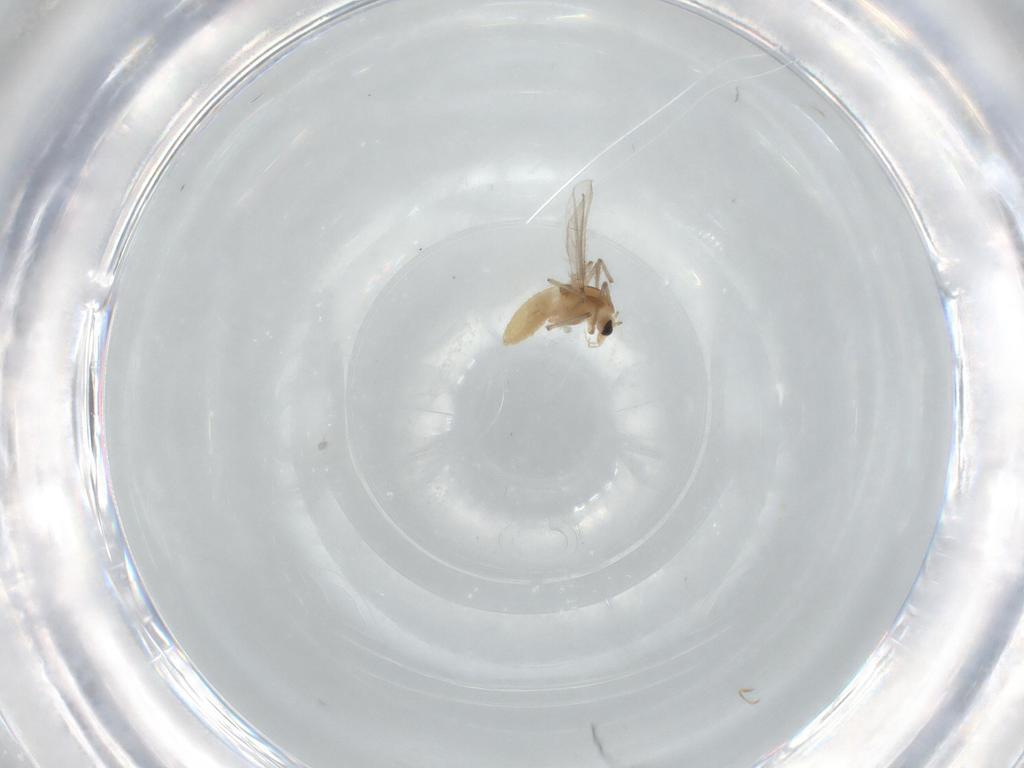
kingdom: Animalia
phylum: Arthropoda
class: Insecta
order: Diptera
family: Chironomidae
